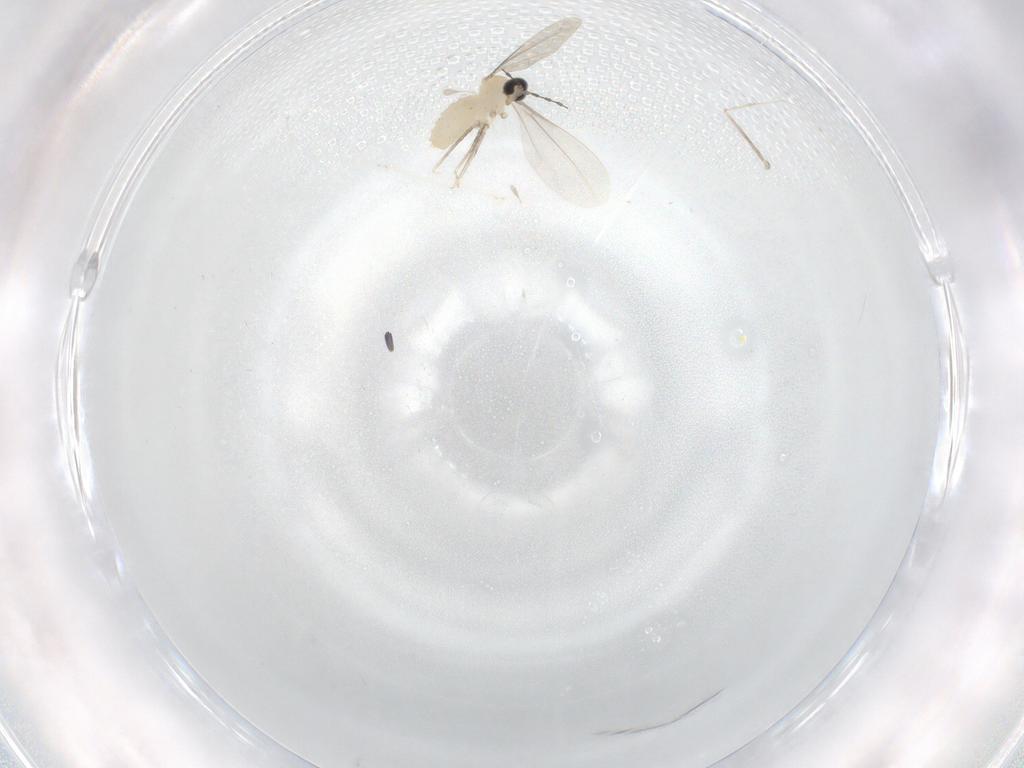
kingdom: Animalia
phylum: Arthropoda
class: Insecta
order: Diptera
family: Cecidomyiidae
